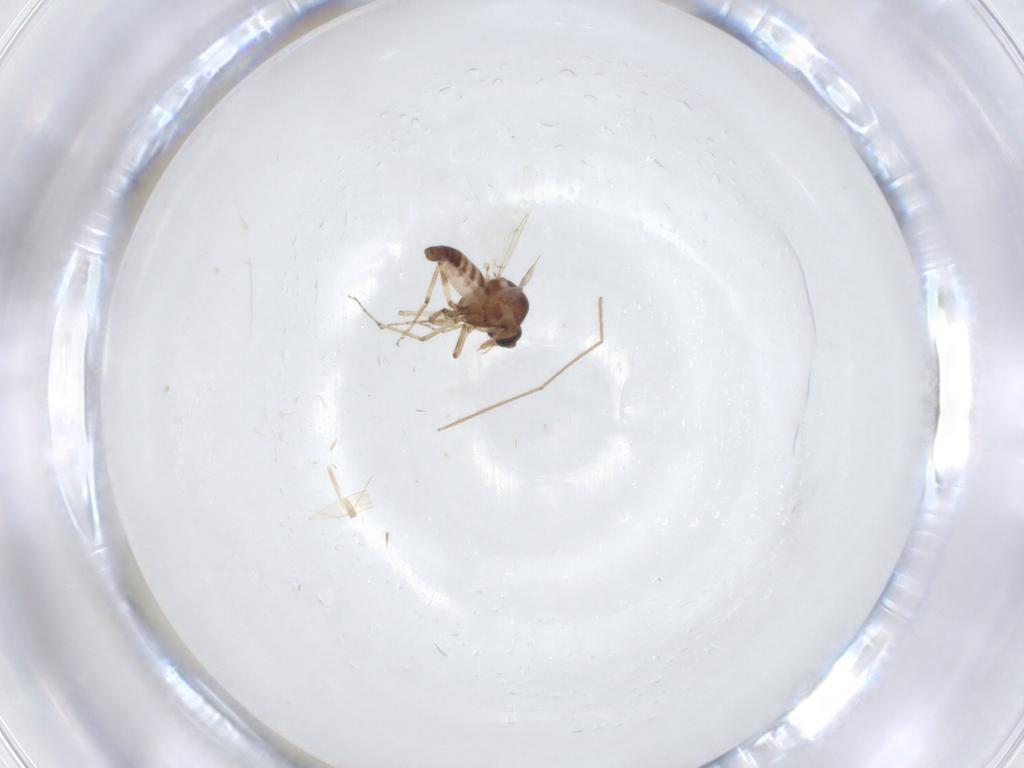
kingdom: Animalia
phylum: Arthropoda
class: Insecta
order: Diptera
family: Ceratopogonidae
